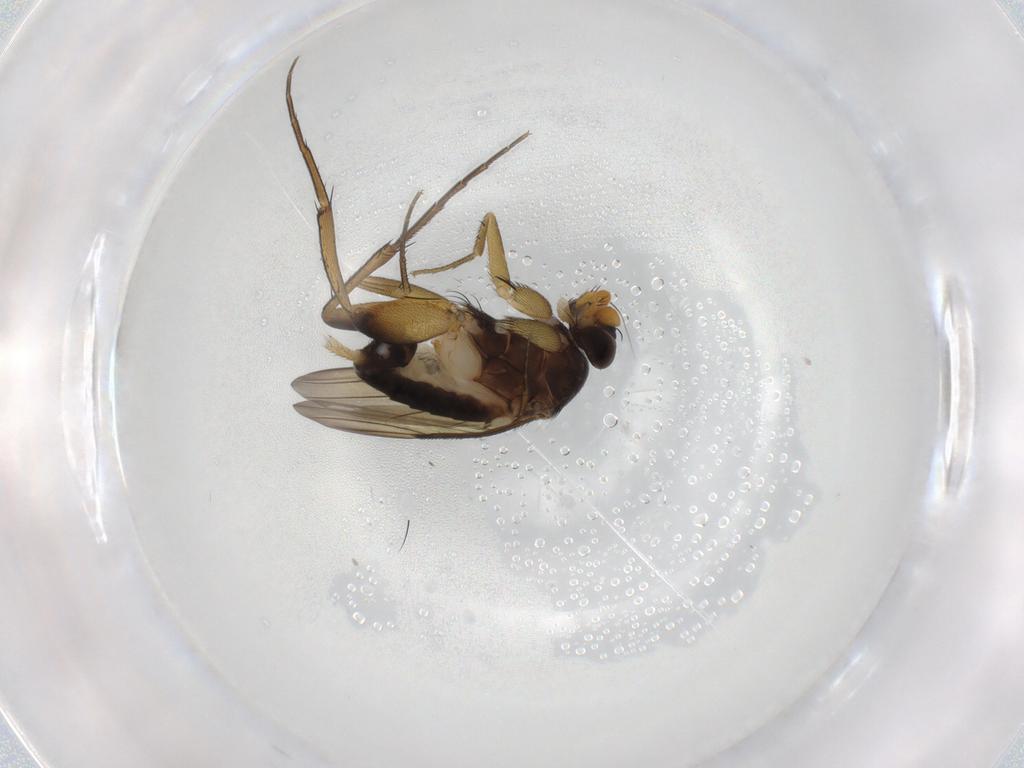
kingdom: Animalia
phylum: Arthropoda
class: Insecta
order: Diptera
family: Phoridae
